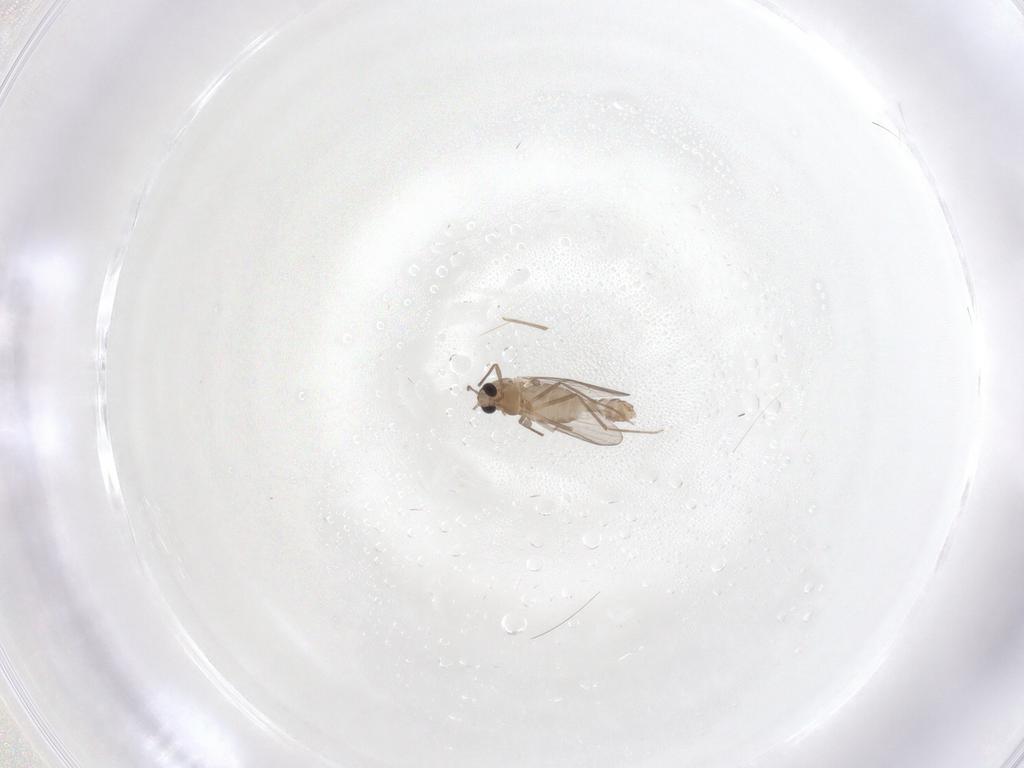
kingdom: Animalia
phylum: Arthropoda
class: Insecta
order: Diptera
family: Chironomidae
